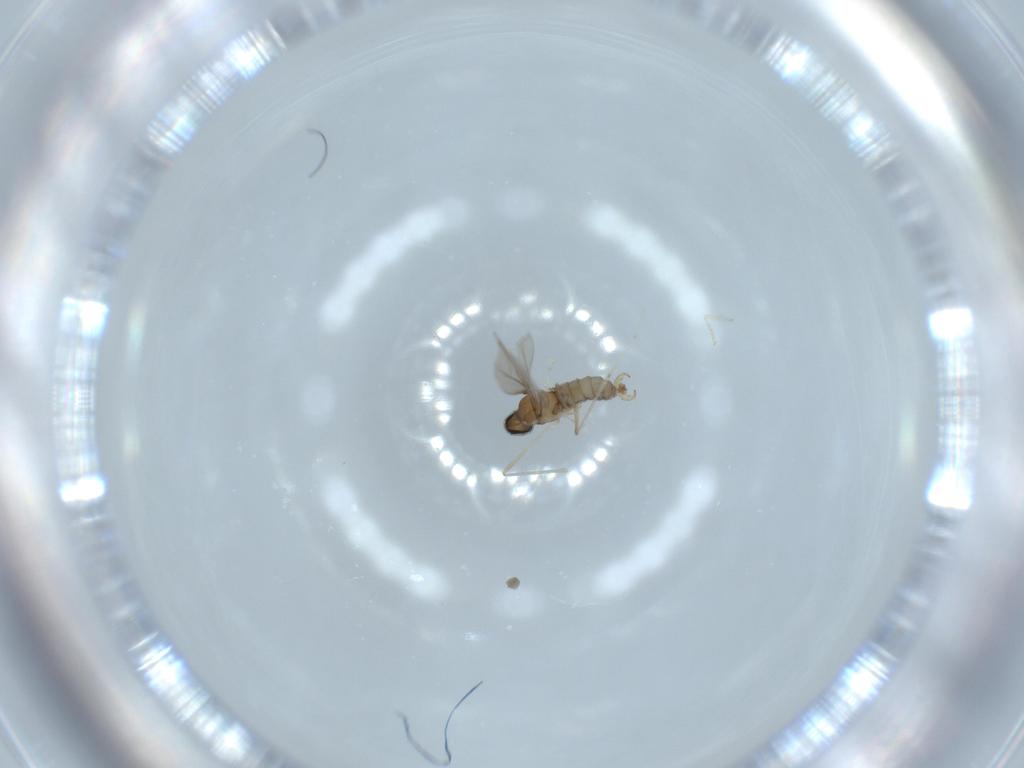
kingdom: Animalia
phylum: Arthropoda
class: Insecta
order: Diptera
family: Cecidomyiidae
